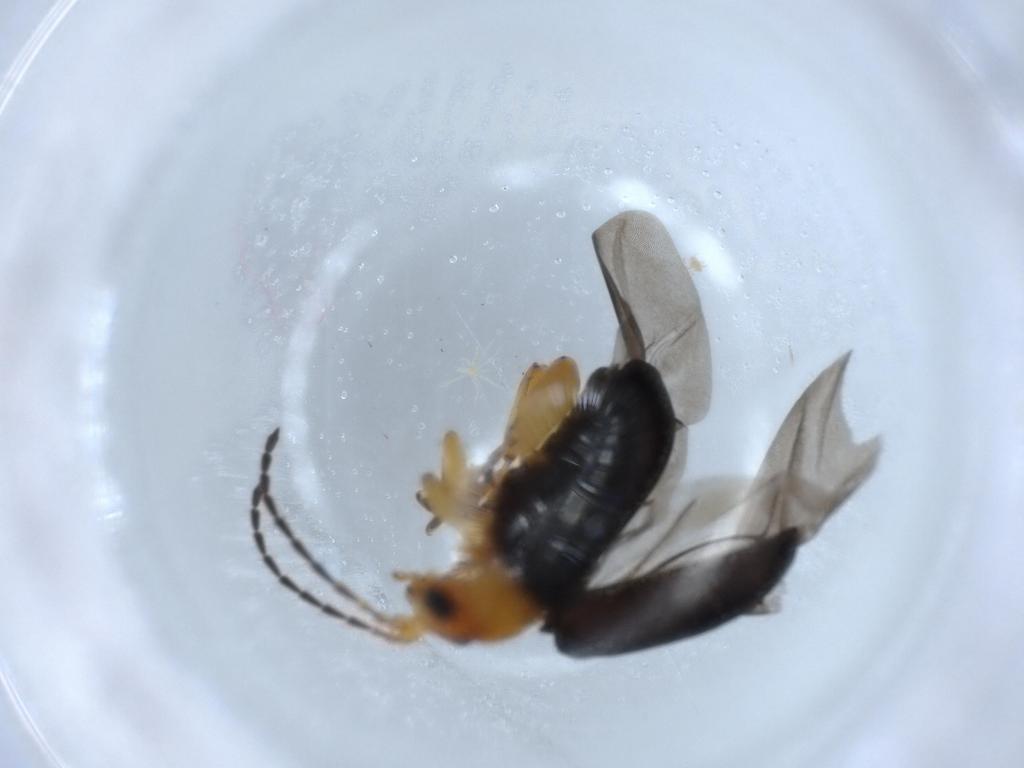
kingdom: Animalia
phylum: Arthropoda
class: Insecta
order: Coleoptera
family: Chrysomelidae
